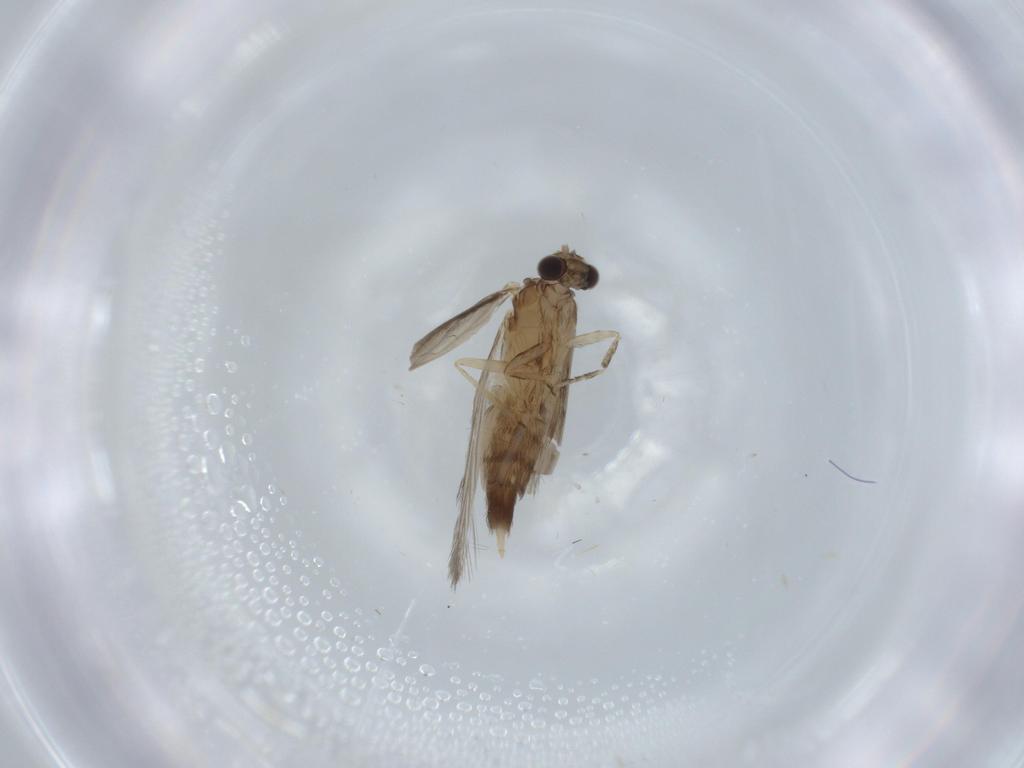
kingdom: Animalia
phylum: Arthropoda
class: Insecta
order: Trichoptera
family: Hydroptilidae
